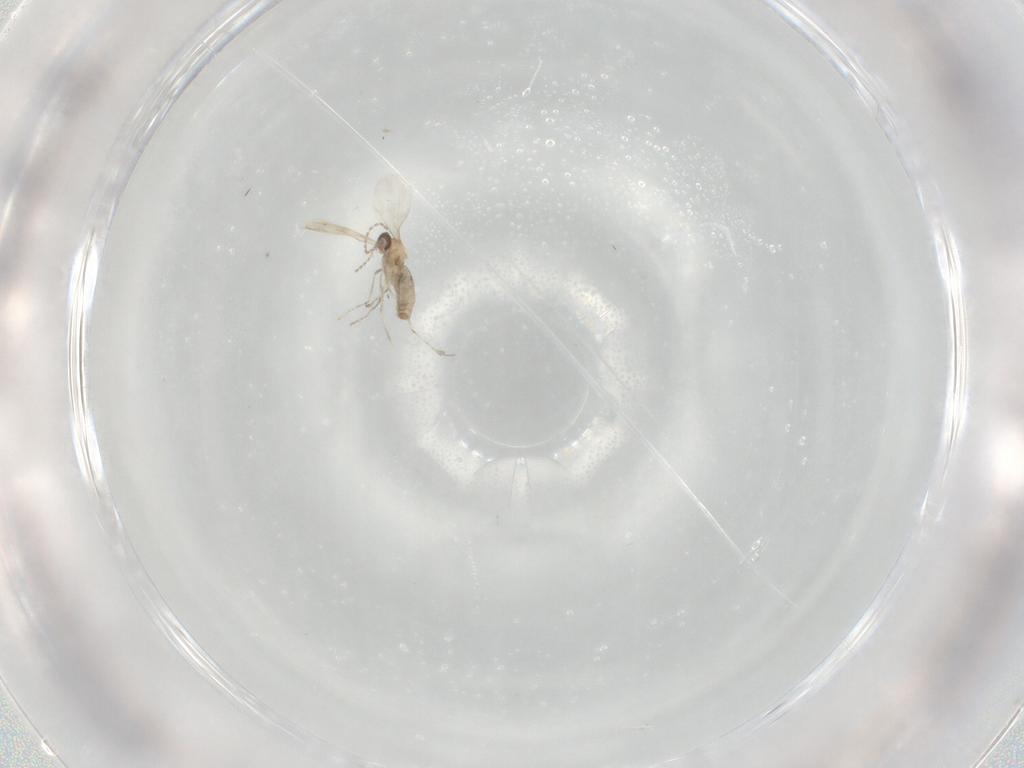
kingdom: Animalia
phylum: Arthropoda
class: Insecta
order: Diptera
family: Cecidomyiidae
